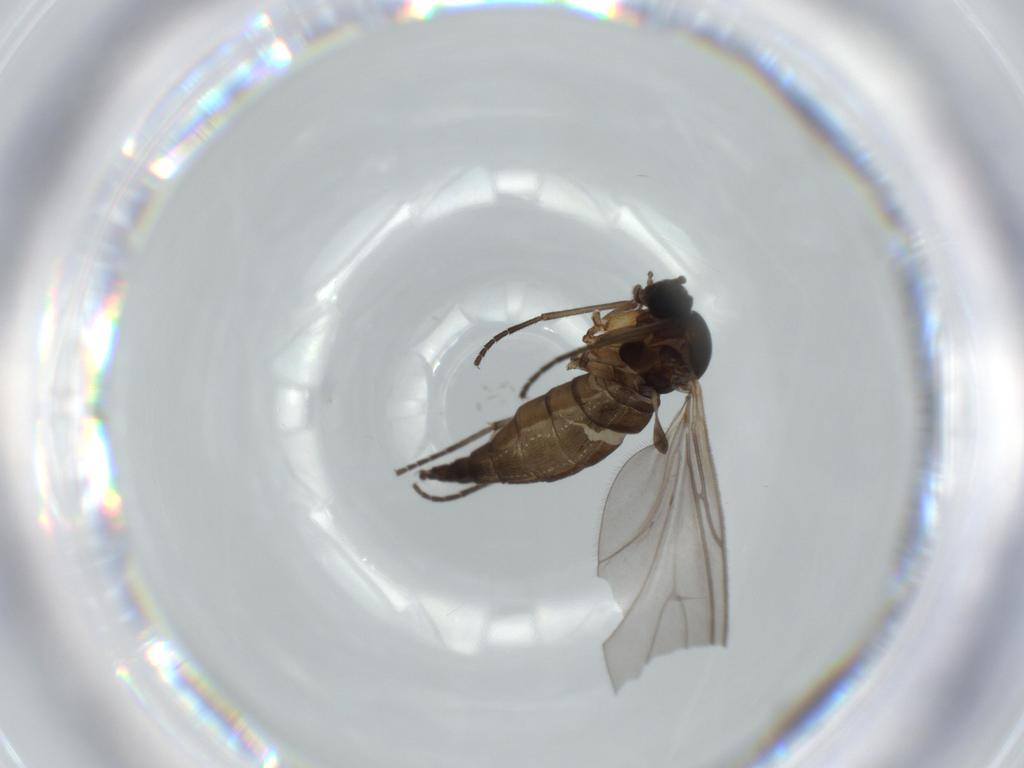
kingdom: Animalia
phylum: Arthropoda
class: Insecta
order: Diptera
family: Sciaridae
